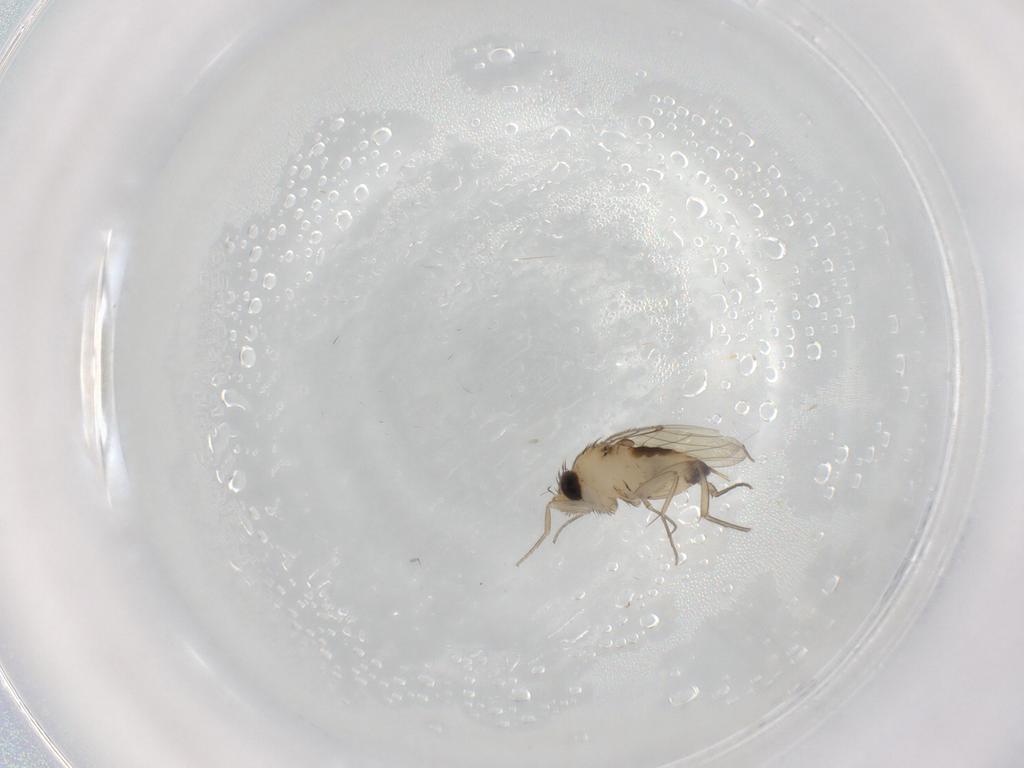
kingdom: Animalia
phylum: Arthropoda
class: Insecta
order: Diptera
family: Phoridae
